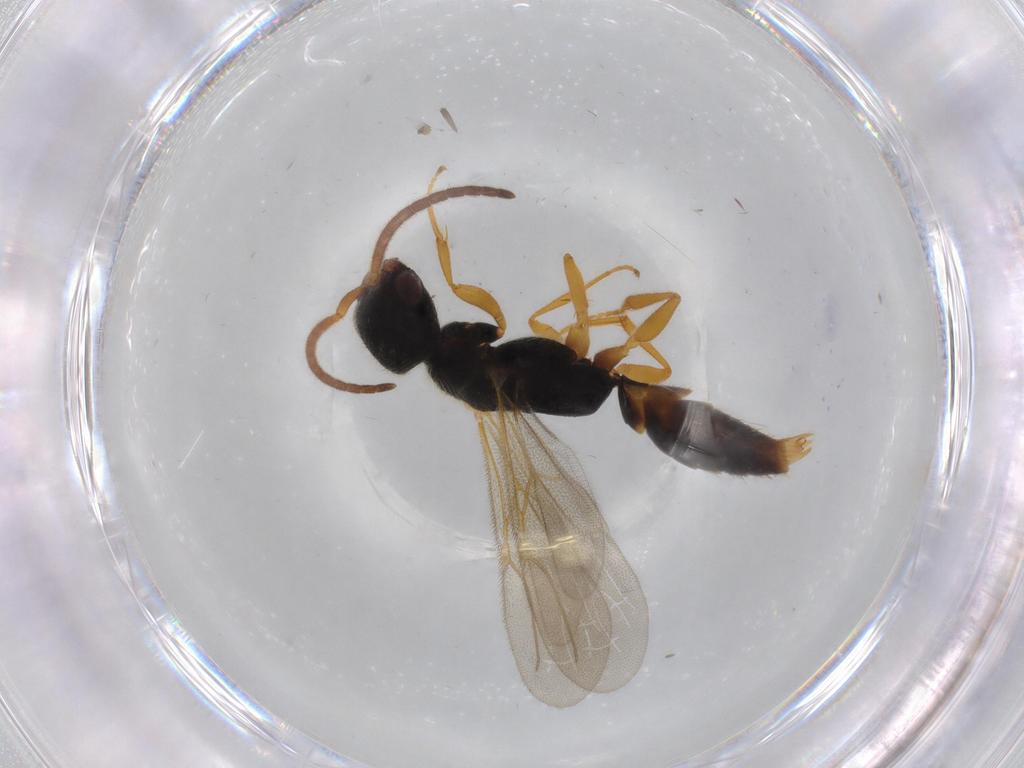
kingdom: Animalia
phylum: Arthropoda
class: Insecta
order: Hymenoptera
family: Bethylidae
